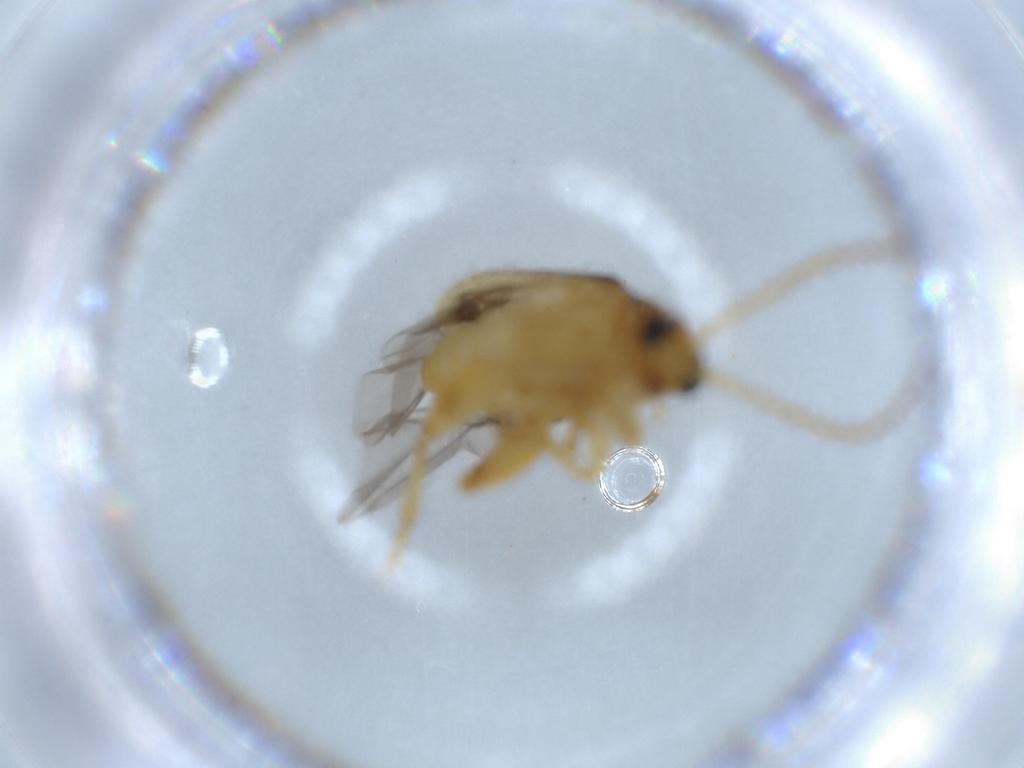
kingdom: Animalia
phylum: Arthropoda
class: Insecta
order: Coleoptera
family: Chrysomelidae
